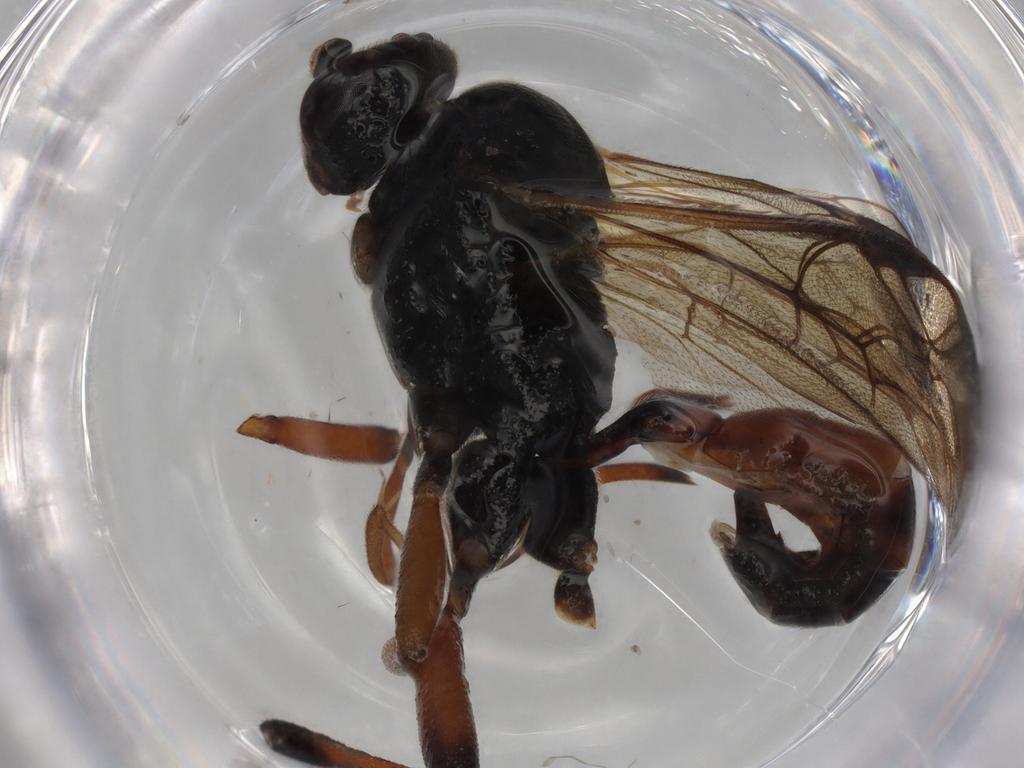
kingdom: Animalia
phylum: Arthropoda
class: Insecta
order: Hymenoptera
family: Ichneumonidae
